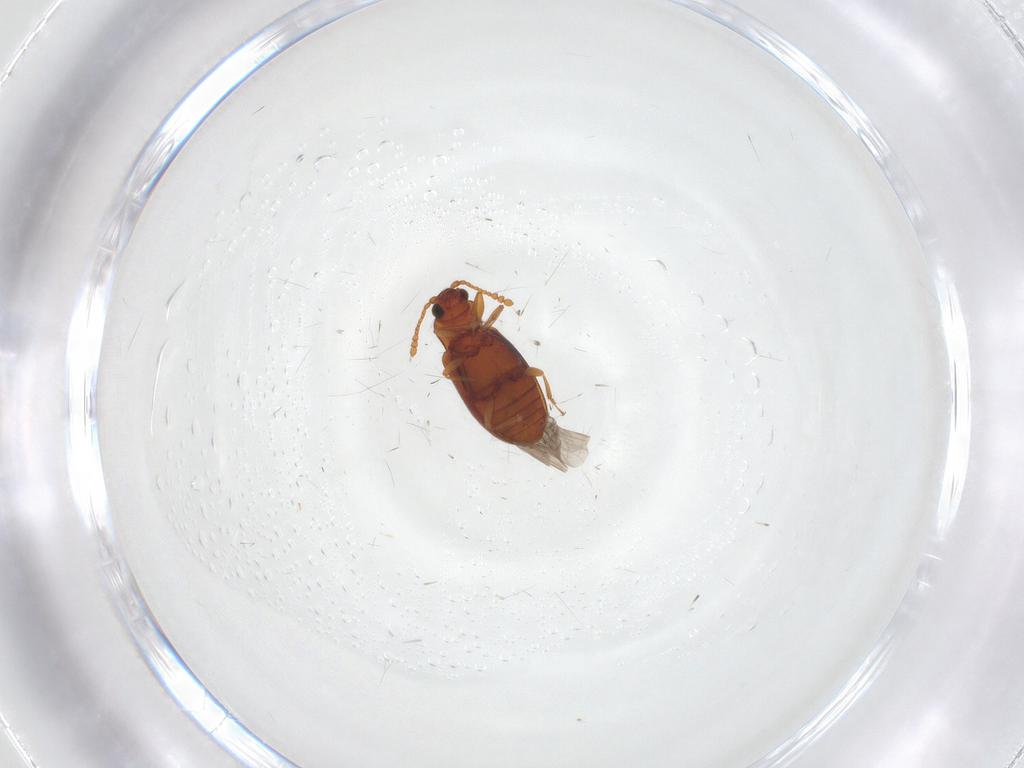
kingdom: Animalia
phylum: Arthropoda
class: Insecta
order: Coleoptera
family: Cryptophagidae
